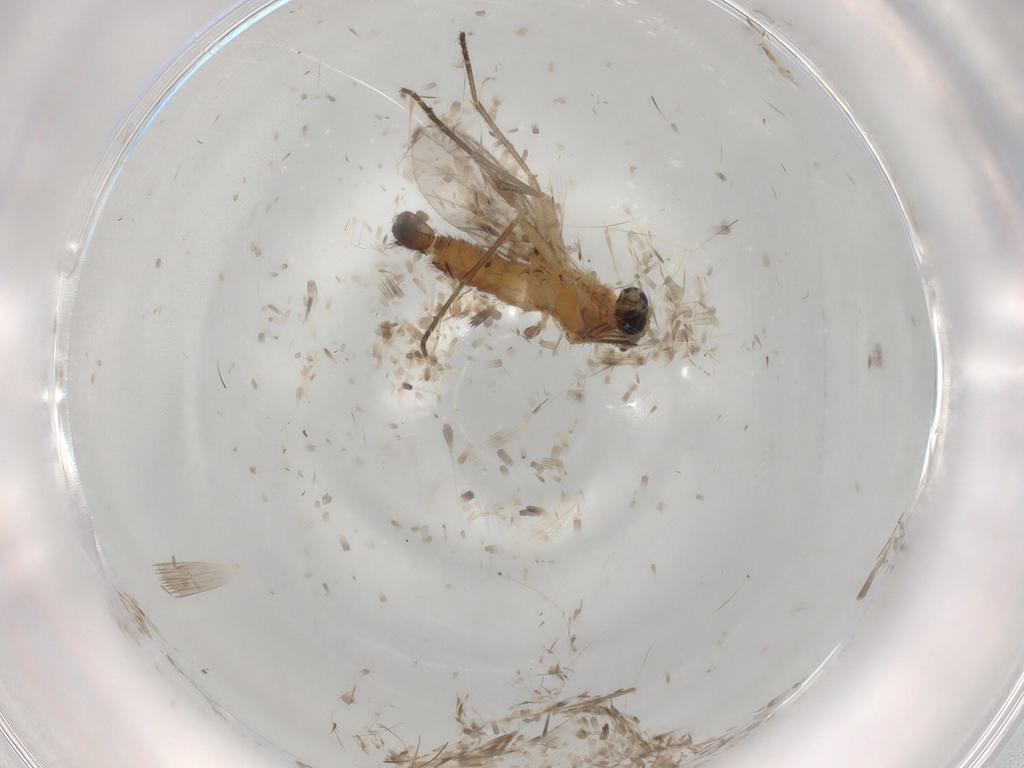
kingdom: Animalia
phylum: Arthropoda
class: Insecta
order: Diptera
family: Sciaridae
